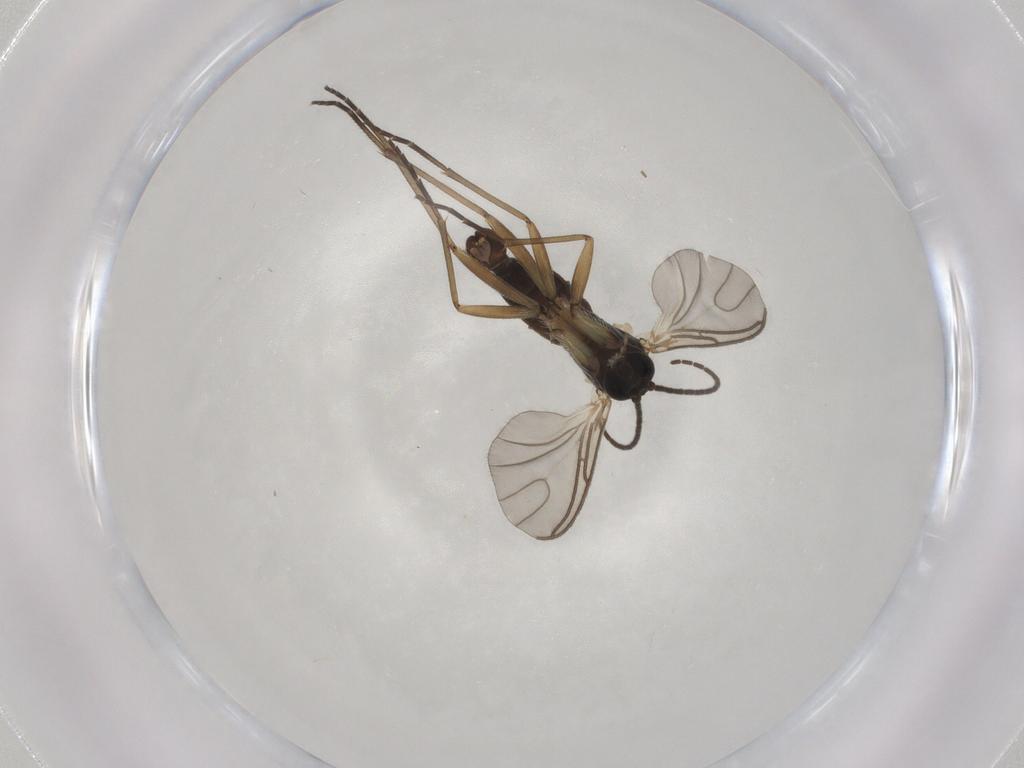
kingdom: Animalia
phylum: Arthropoda
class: Insecta
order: Diptera
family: Sciaridae
